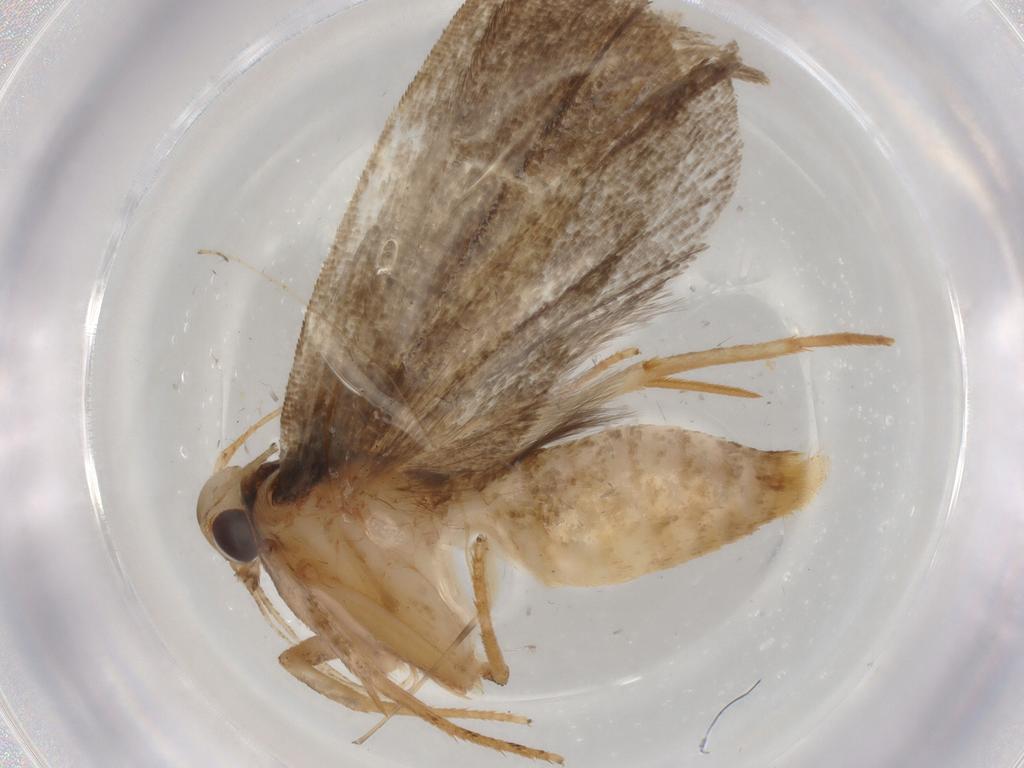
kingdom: Animalia
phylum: Arthropoda
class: Insecta
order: Lepidoptera
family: Gelechiidae
